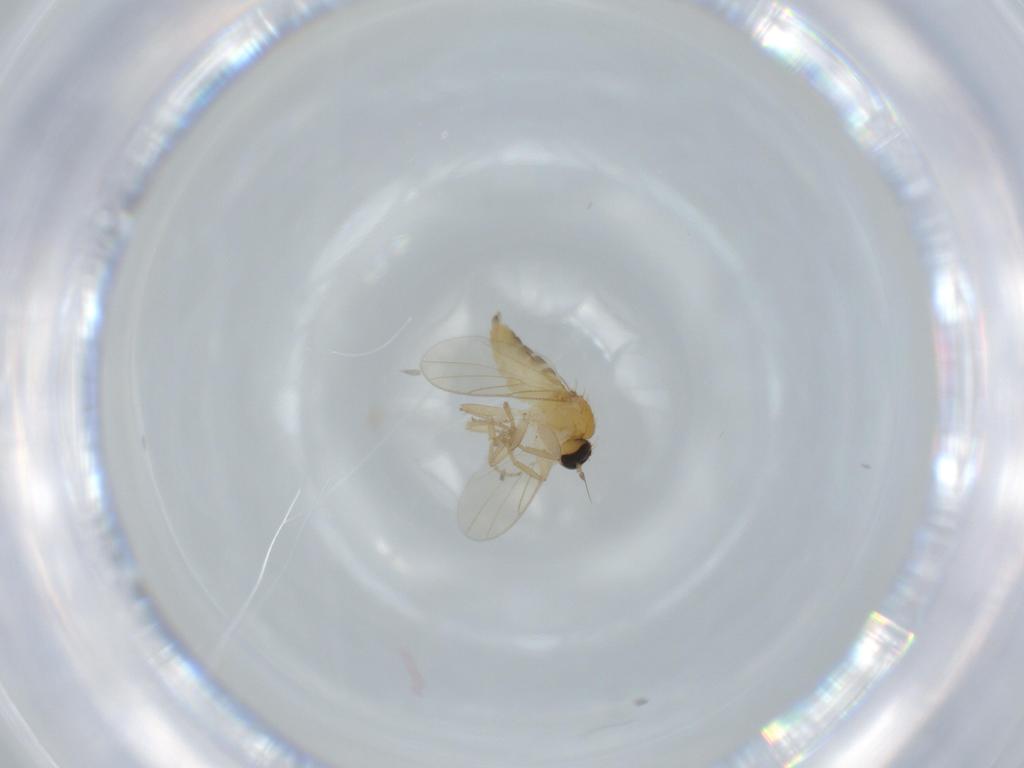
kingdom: Animalia
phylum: Arthropoda
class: Insecta
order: Diptera
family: Hybotidae
